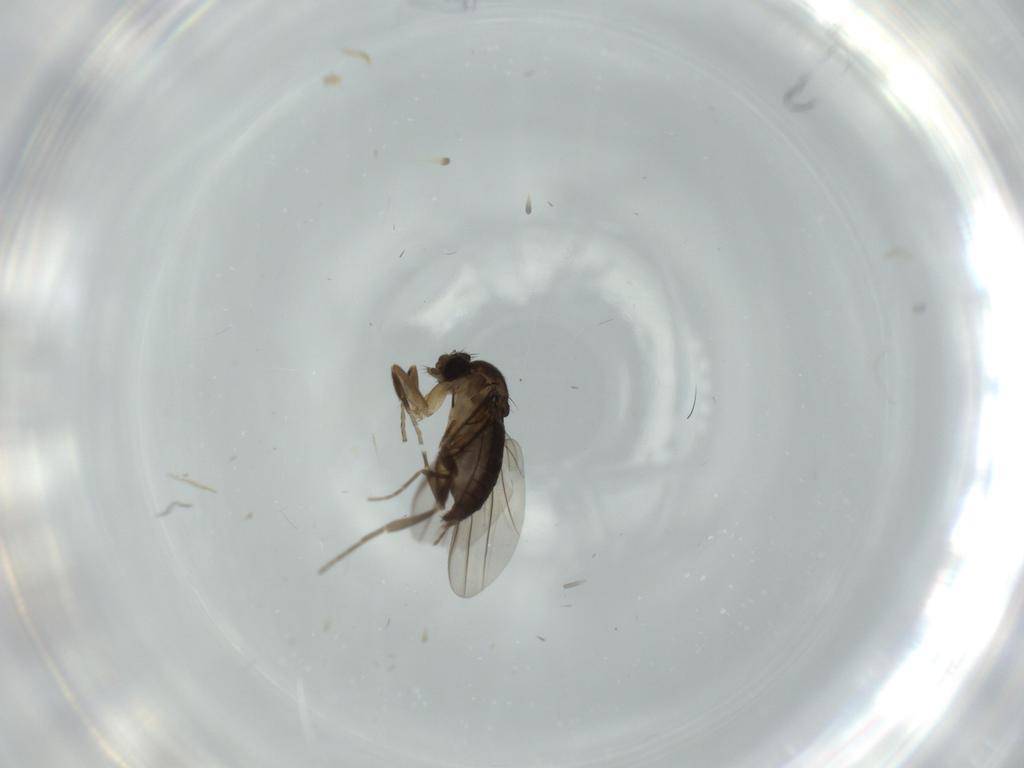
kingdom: Animalia
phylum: Arthropoda
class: Insecta
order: Diptera
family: Phoridae
